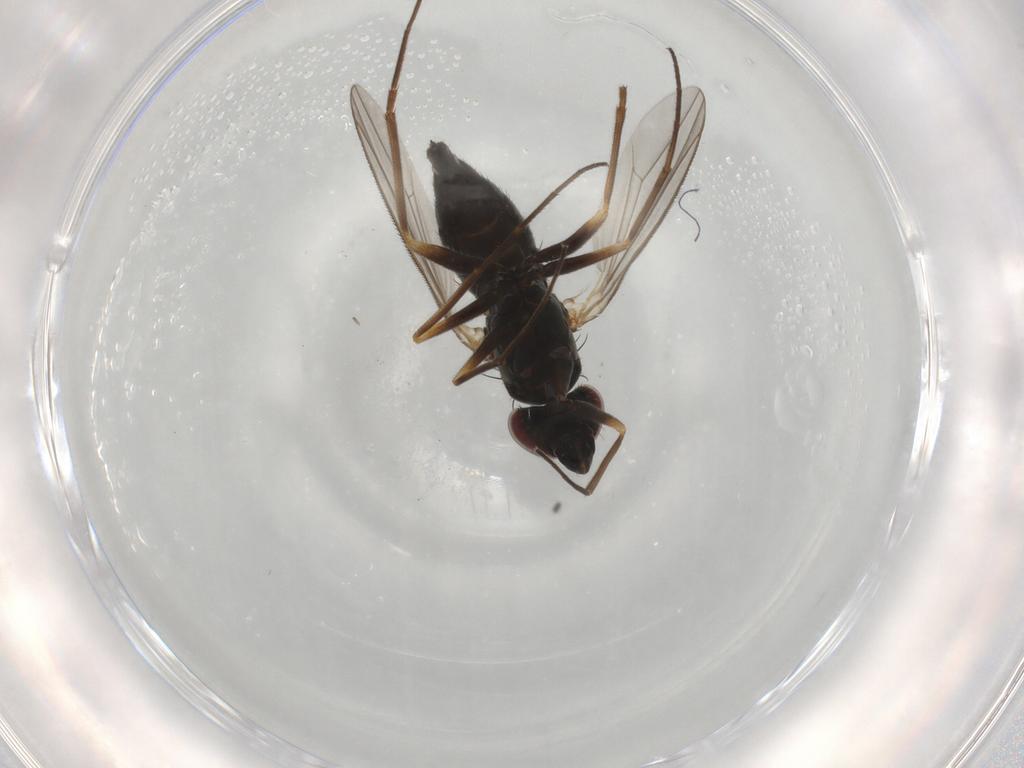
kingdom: Animalia
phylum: Arthropoda
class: Insecta
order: Diptera
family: Dolichopodidae
